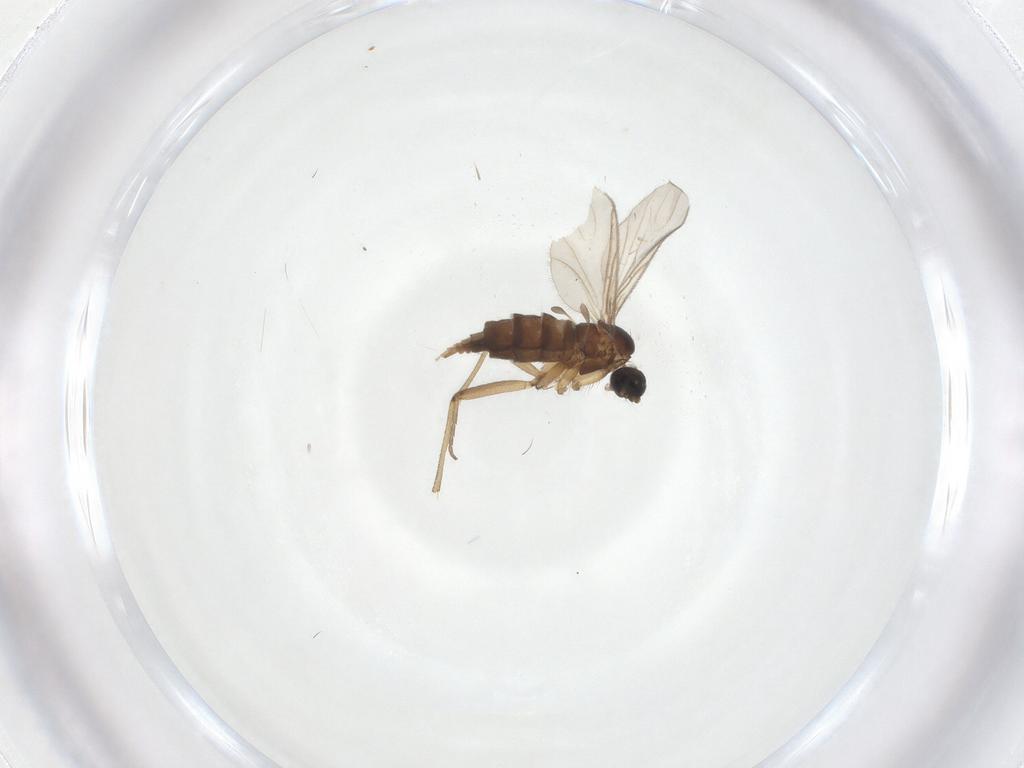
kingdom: Animalia
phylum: Arthropoda
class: Insecta
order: Diptera
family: Sciaridae
